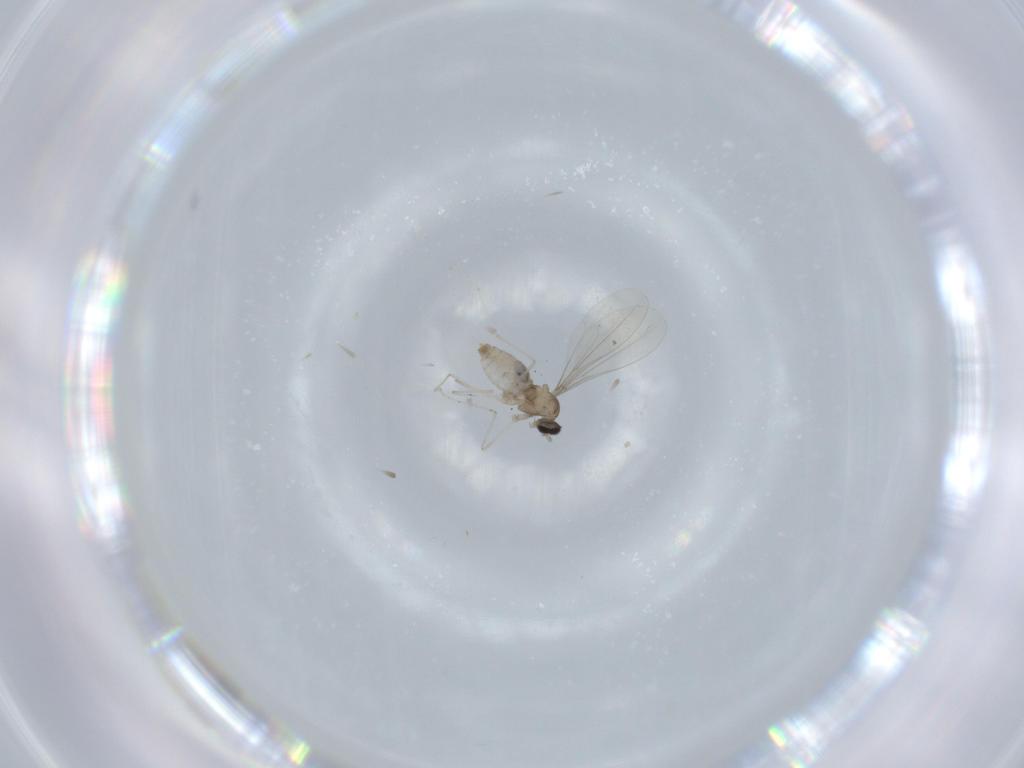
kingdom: Animalia
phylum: Arthropoda
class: Insecta
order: Diptera
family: Cecidomyiidae
